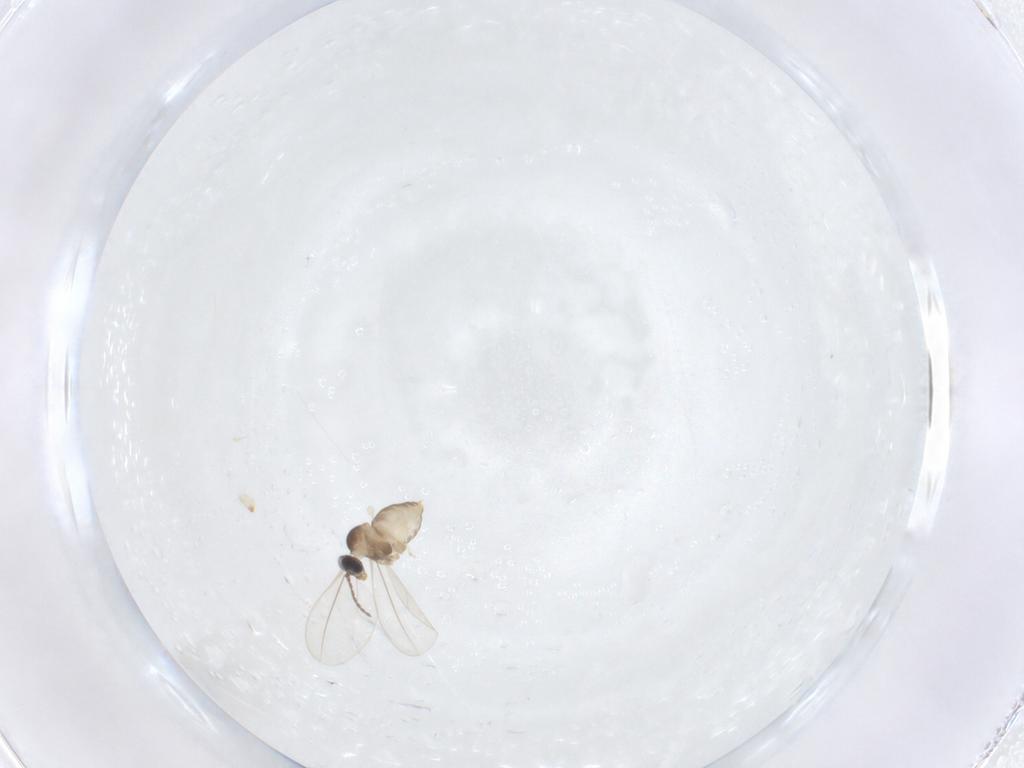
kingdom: Animalia
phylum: Arthropoda
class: Insecta
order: Diptera
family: Cecidomyiidae
